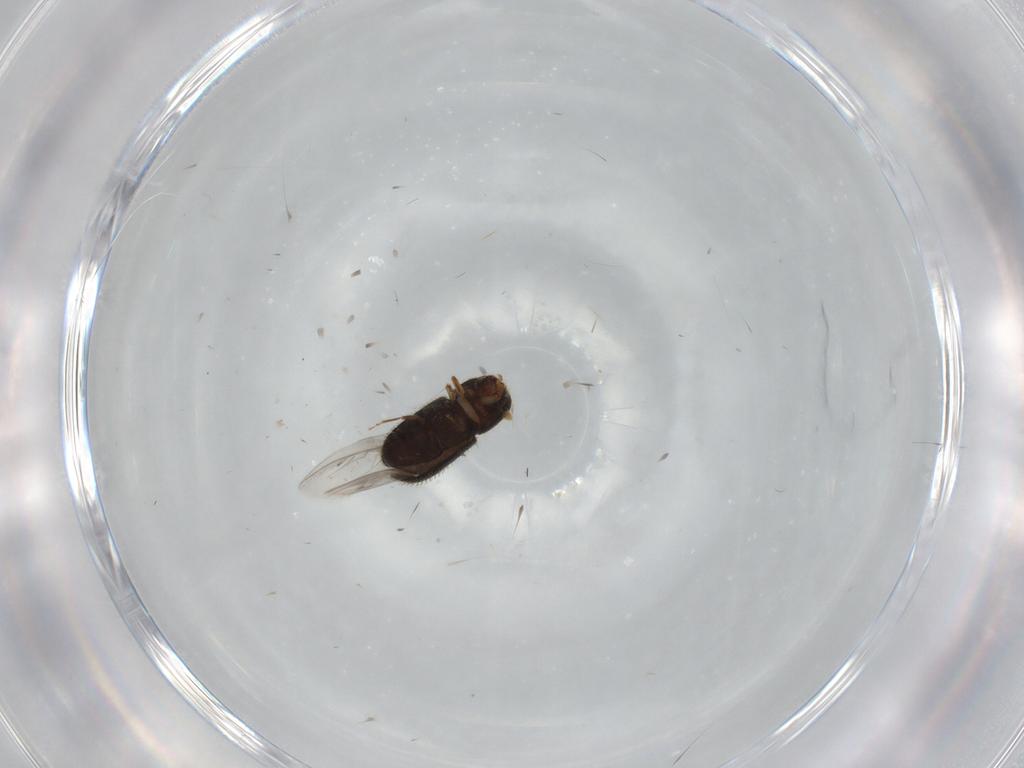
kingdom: Animalia
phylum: Arthropoda
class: Insecta
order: Coleoptera
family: Curculionidae
